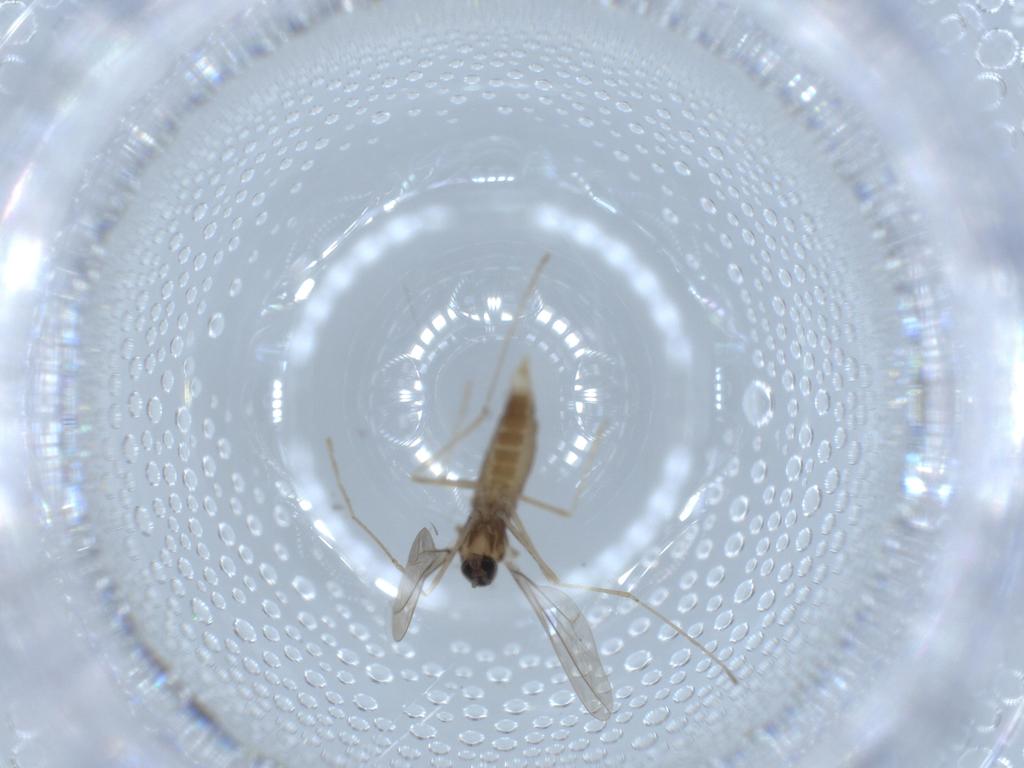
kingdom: Animalia
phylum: Arthropoda
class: Insecta
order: Diptera
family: Cecidomyiidae
